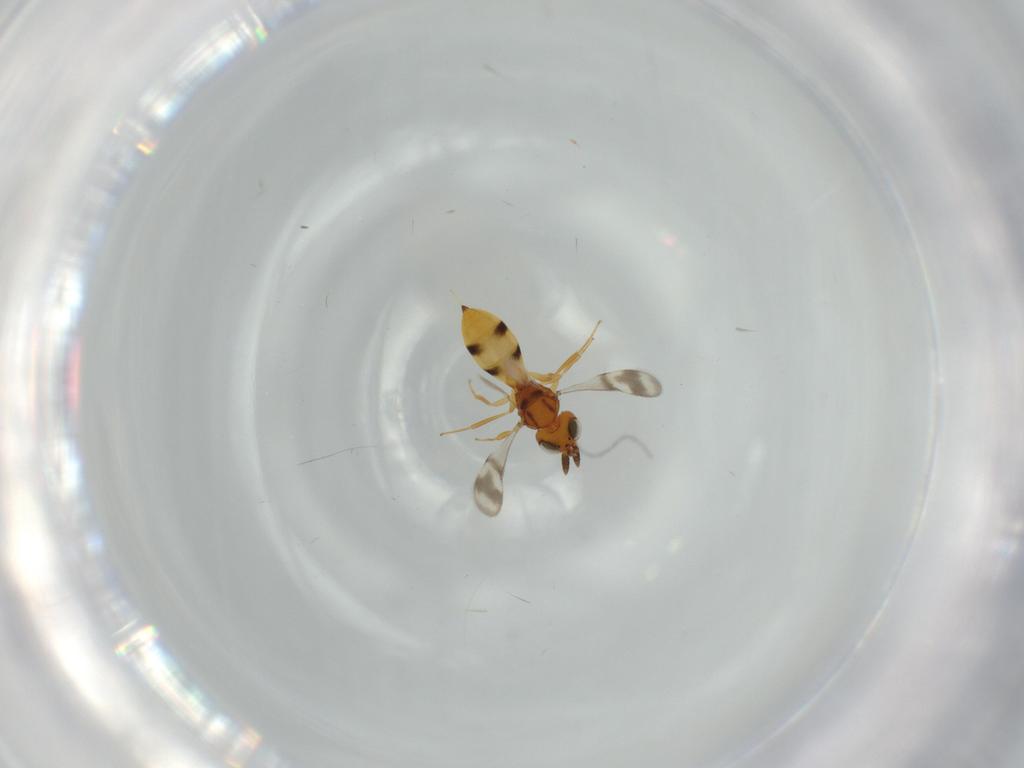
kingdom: Animalia
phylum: Arthropoda
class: Insecta
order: Hymenoptera
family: Scelionidae
